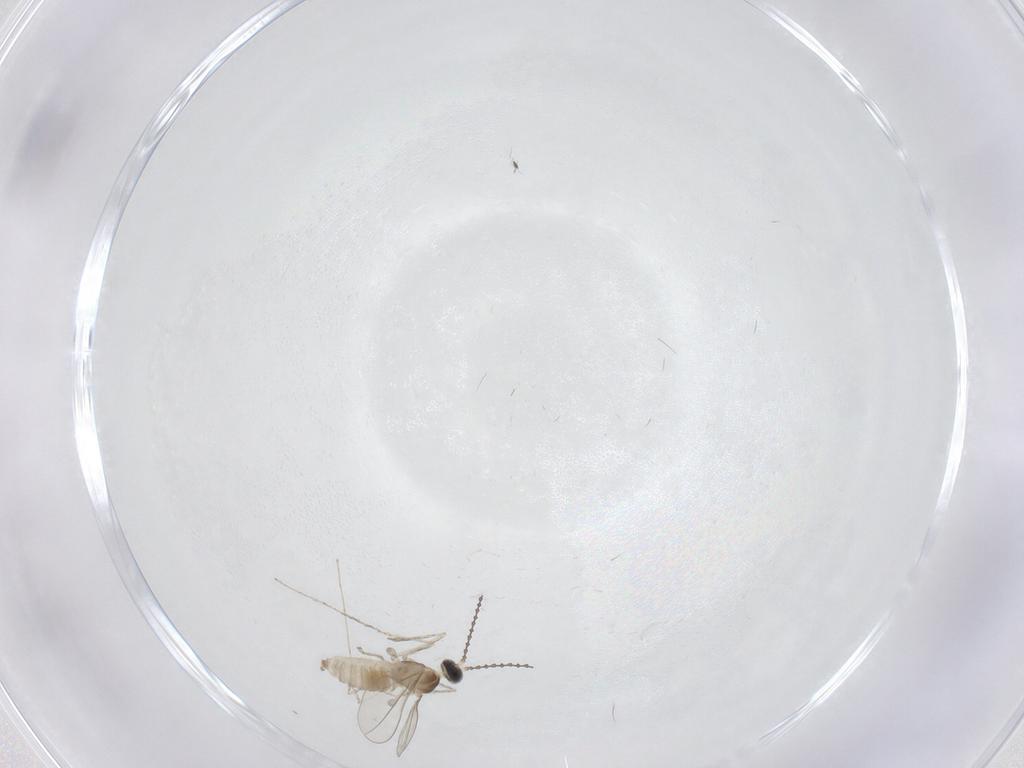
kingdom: Animalia
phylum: Arthropoda
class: Insecta
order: Diptera
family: Cecidomyiidae
